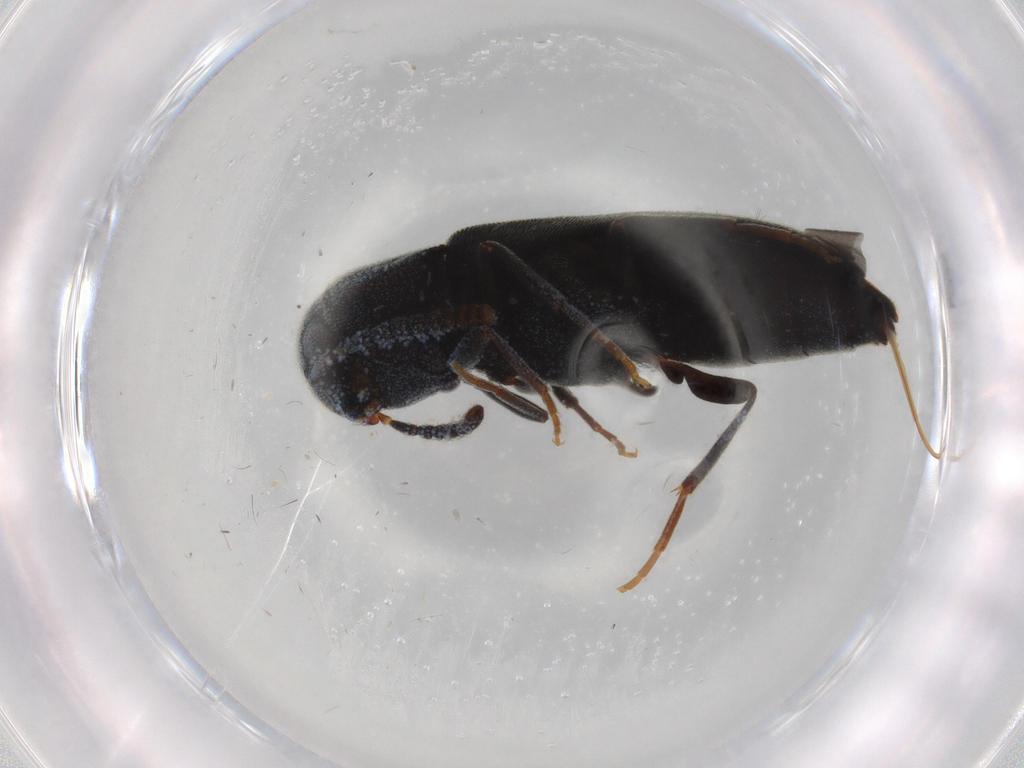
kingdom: Animalia
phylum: Arthropoda
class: Insecta
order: Coleoptera
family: Eucnemidae
